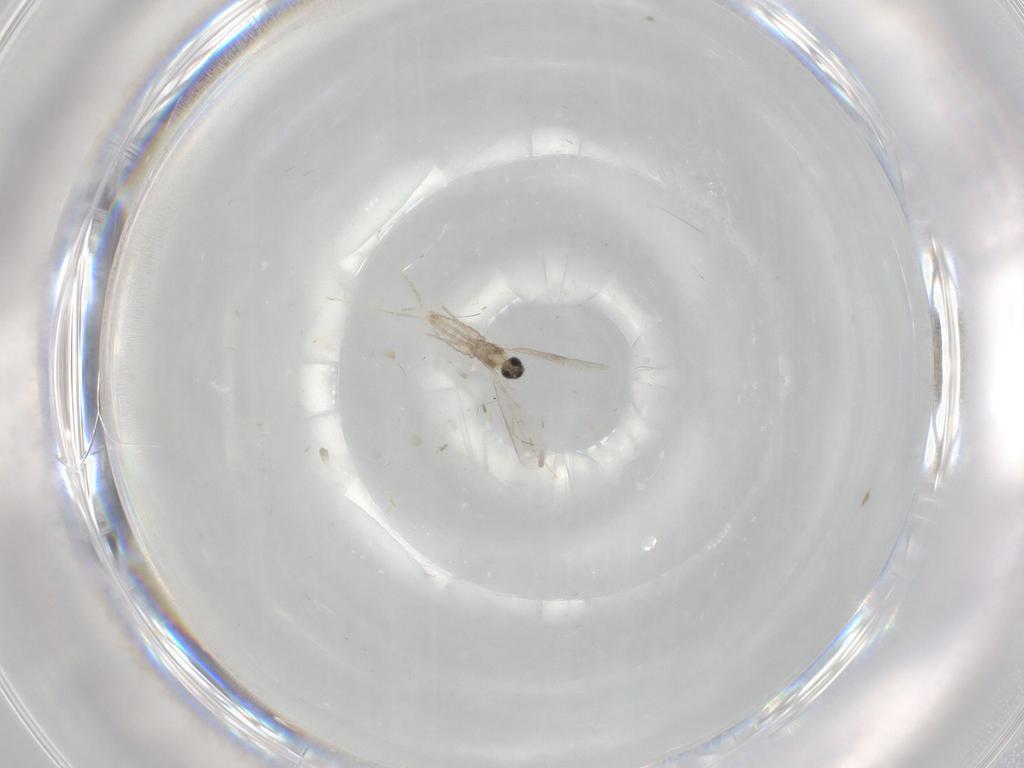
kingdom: Animalia
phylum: Arthropoda
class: Insecta
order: Diptera
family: Cecidomyiidae
